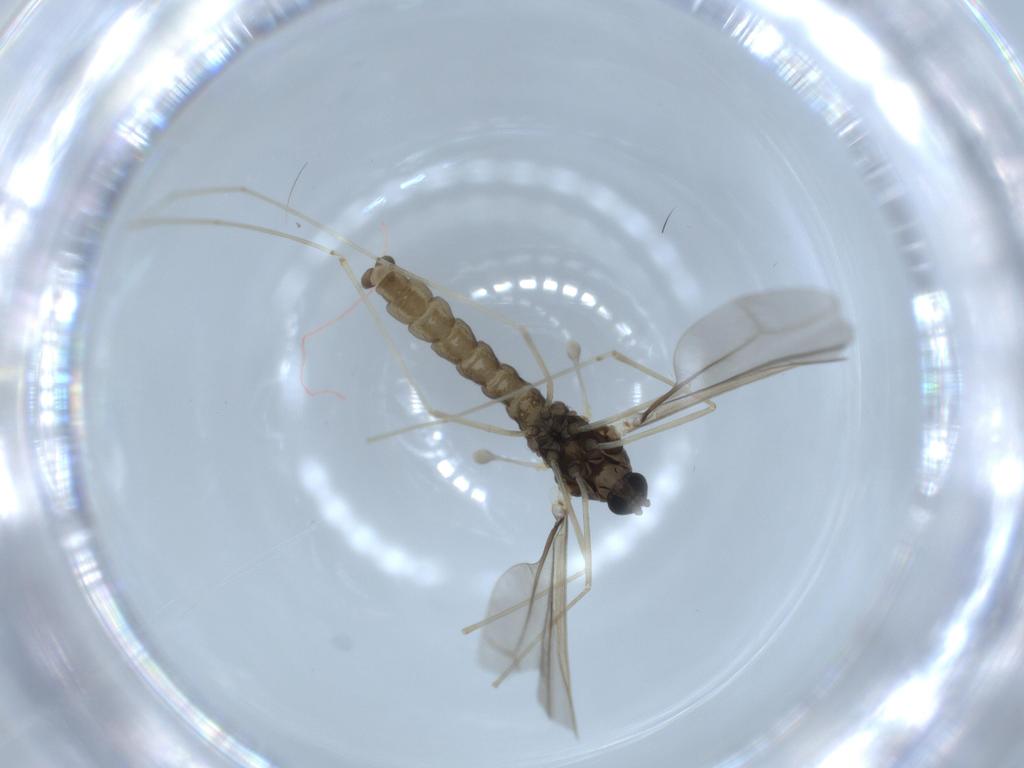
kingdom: Animalia
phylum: Arthropoda
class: Insecta
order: Diptera
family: Cecidomyiidae
